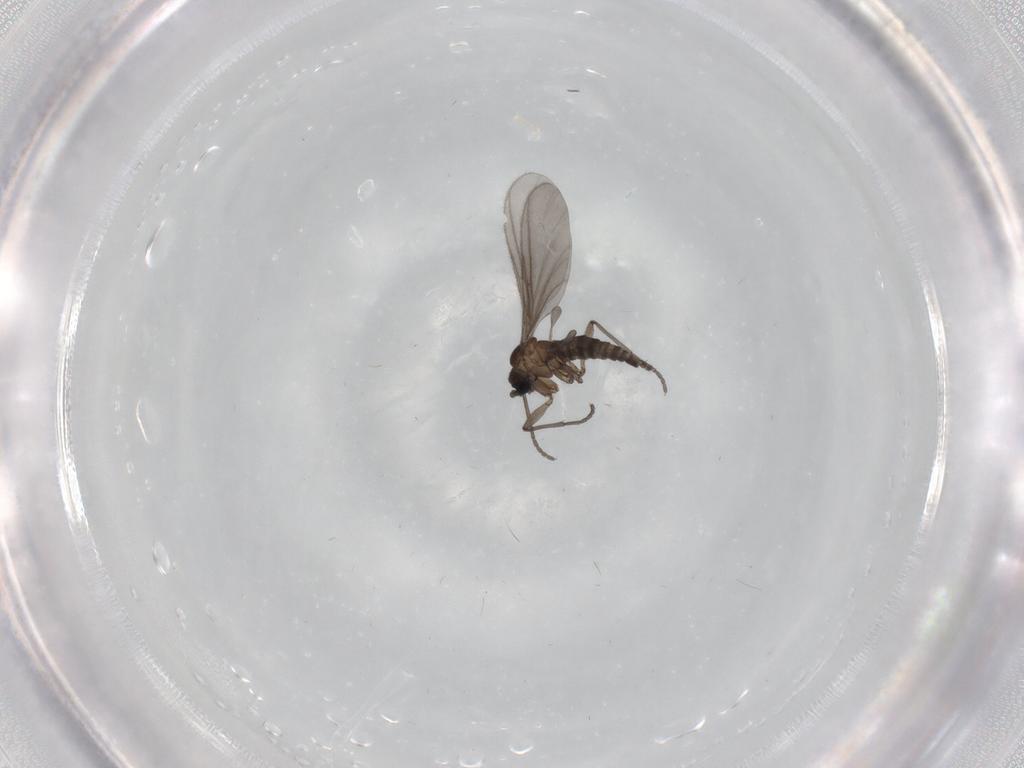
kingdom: Animalia
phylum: Arthropoda
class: Insecta
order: Diptera
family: Sciaridae
